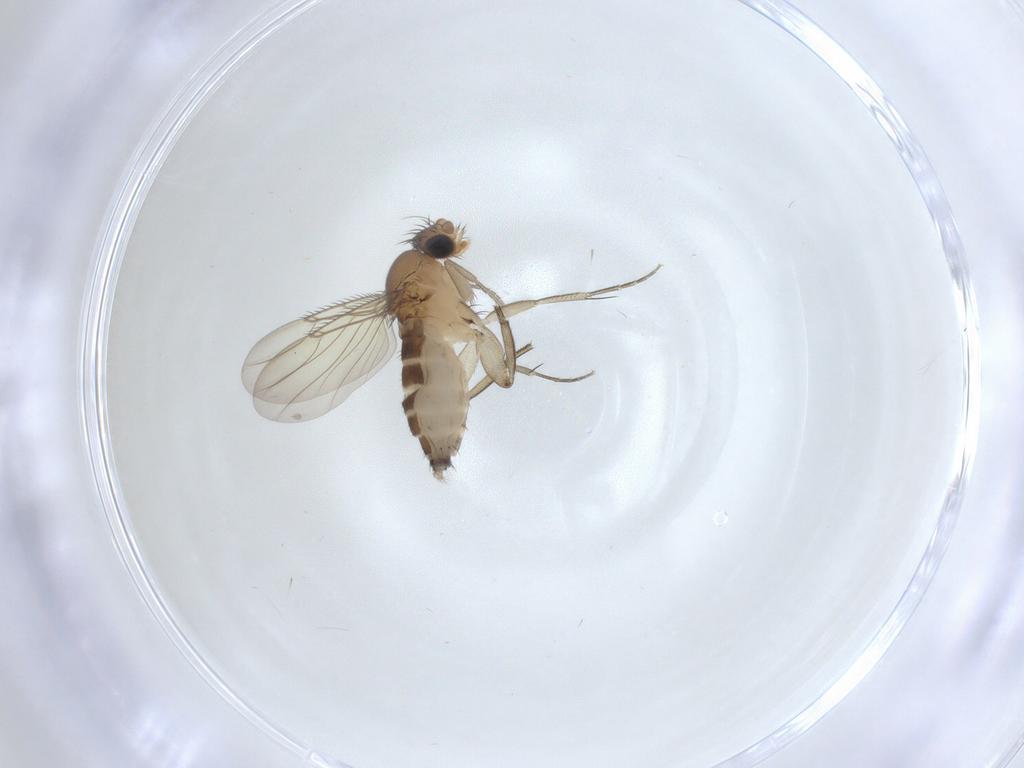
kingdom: Animalia
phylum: Arthropoda
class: Insecta
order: Diptera
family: Phoridae
